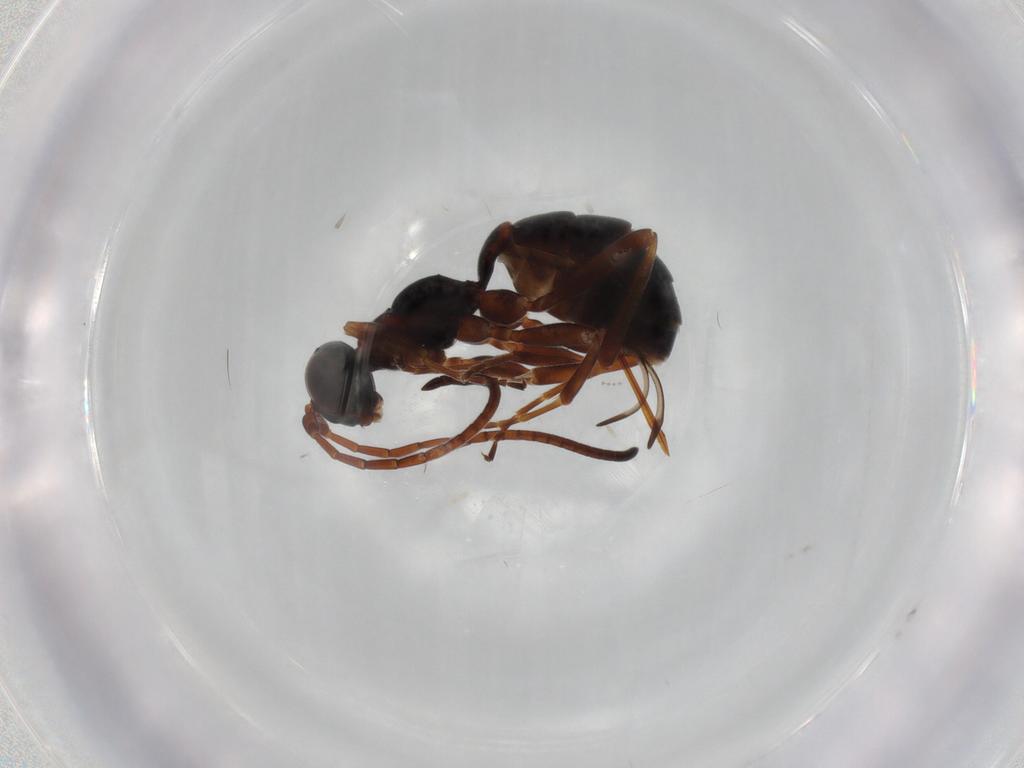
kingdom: Animalia
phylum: Arthropoda
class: Insecta
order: Hymenoptera
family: Ichneumonidae
